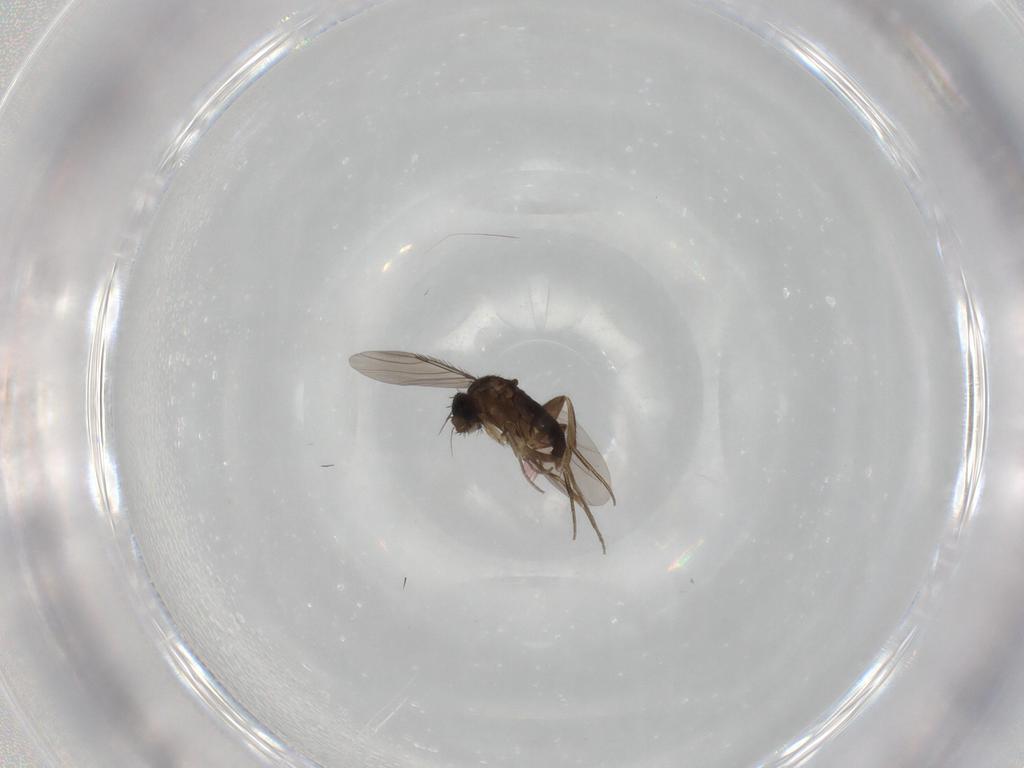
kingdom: Animalia
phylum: Arthropoda
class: Insecta
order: Diptera
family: Phoridae
